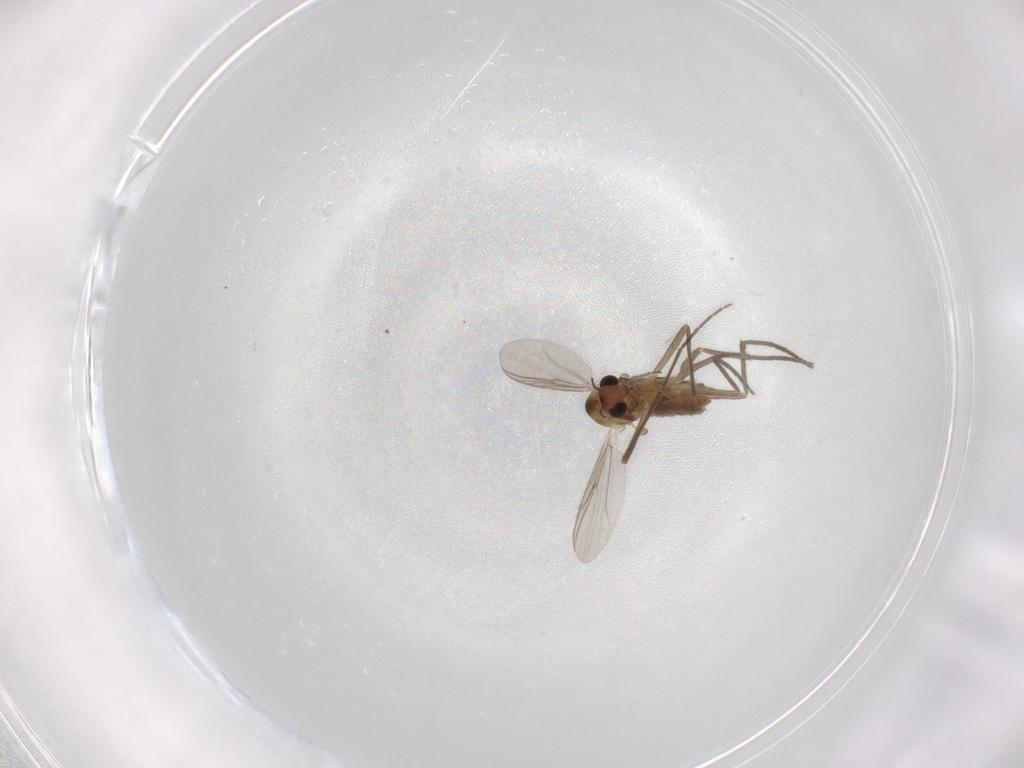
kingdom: Animalia
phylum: Arthropoda
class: Insecta
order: Diptera
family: Chironomidae
